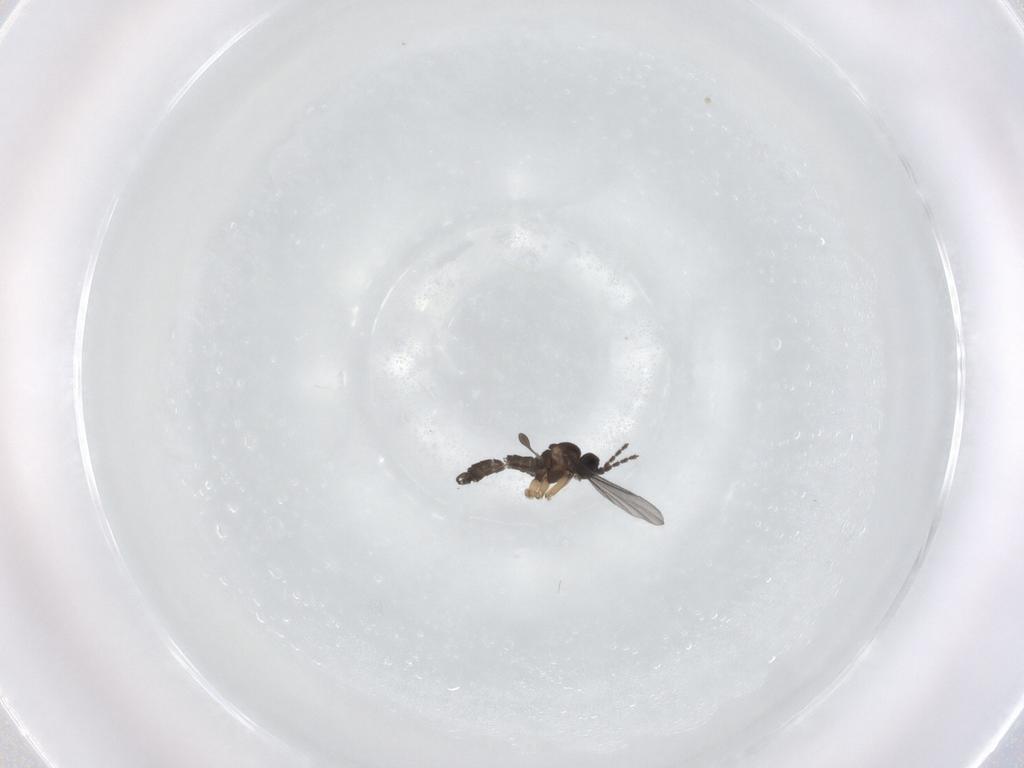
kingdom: Animalia
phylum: Arthropoda
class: Insecta
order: Diptera
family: Sciaridae
